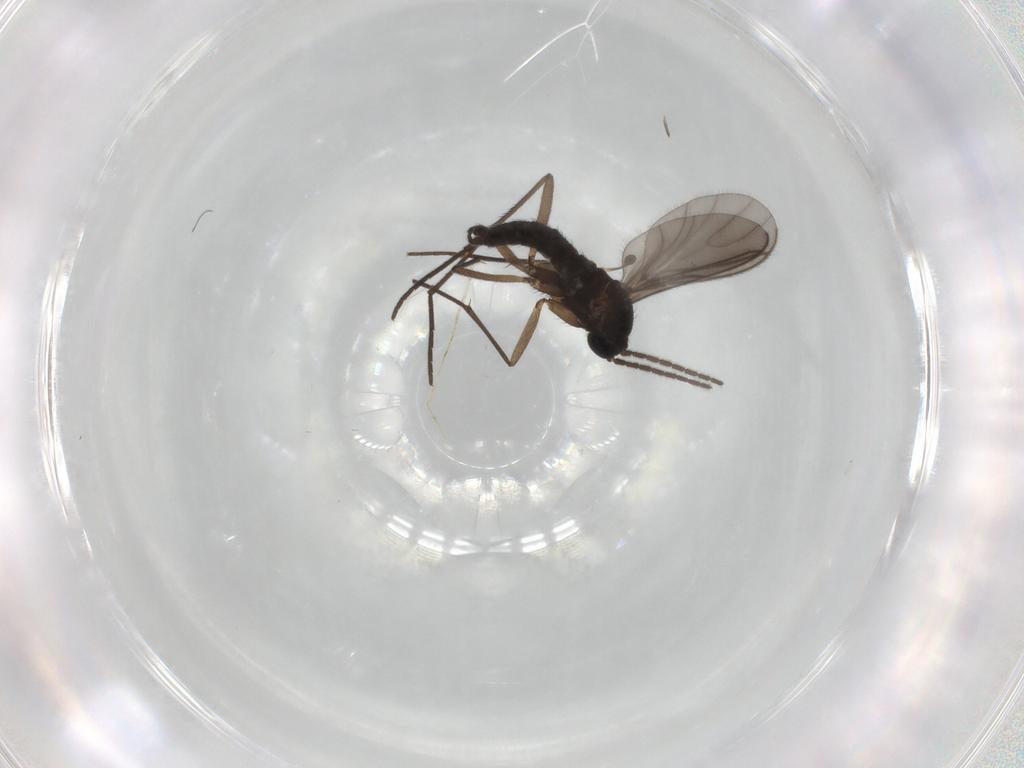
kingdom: Animalia
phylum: Arthropoda
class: Insecta
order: Diptera
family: Sciaridae
